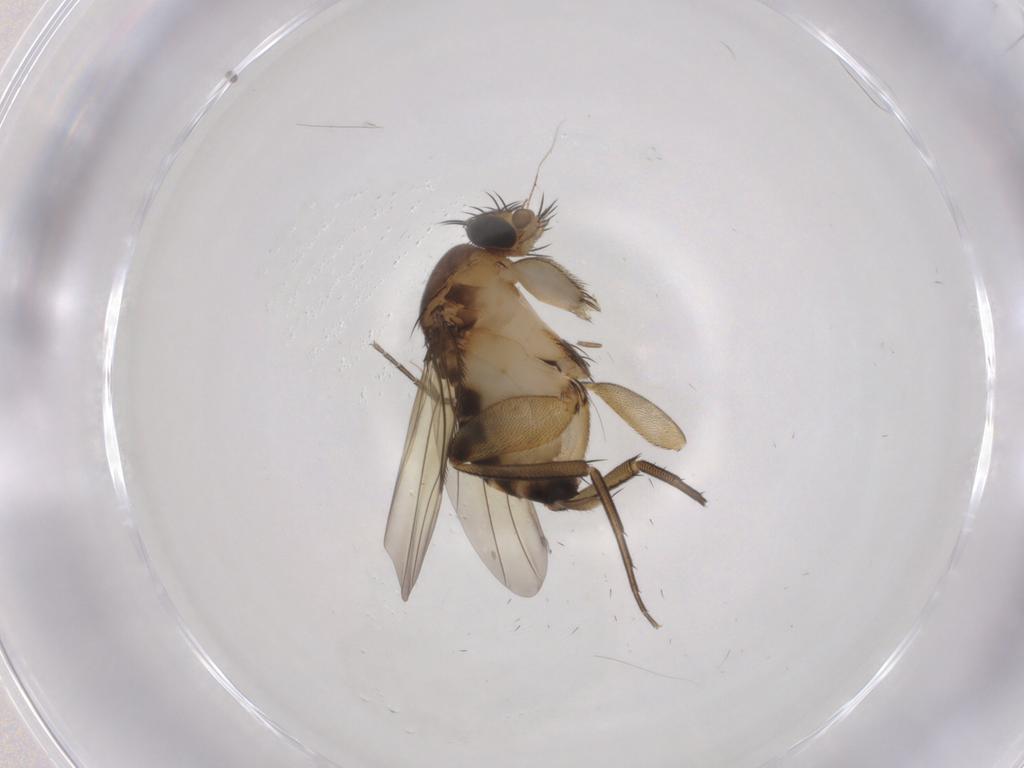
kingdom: Animalia
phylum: Arthropoda
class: Insecta
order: Diptera
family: Phoridae
